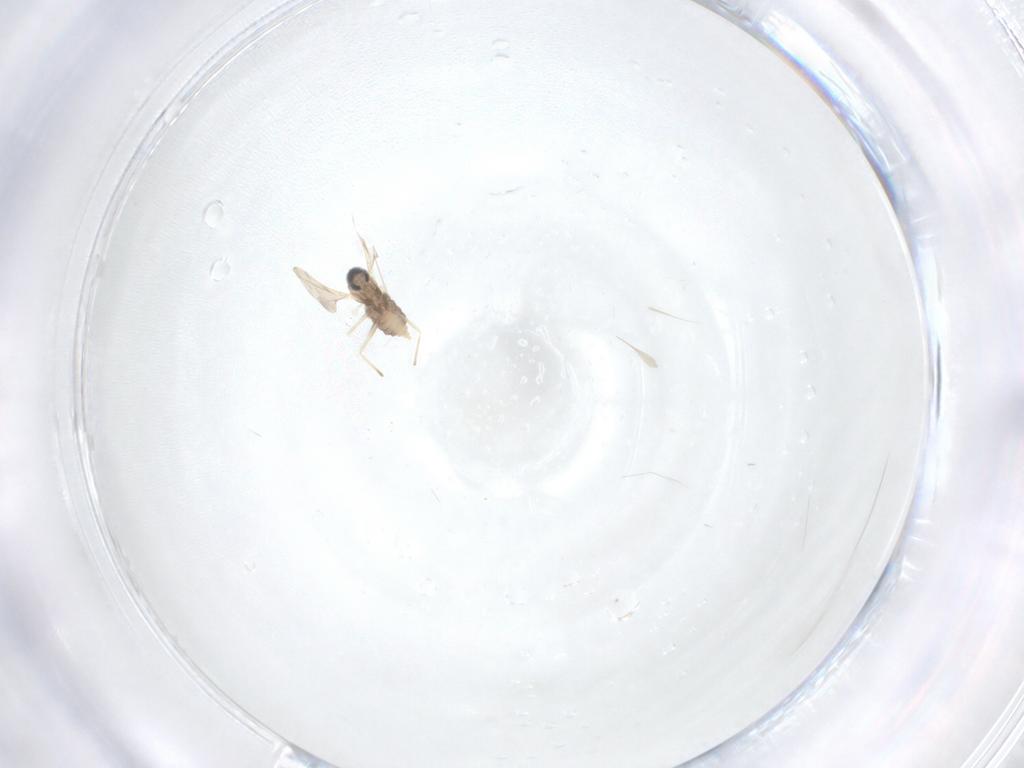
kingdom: Animalia
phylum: Arthropoda
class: Insecta
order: Diptera
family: Cecidomyiidae
